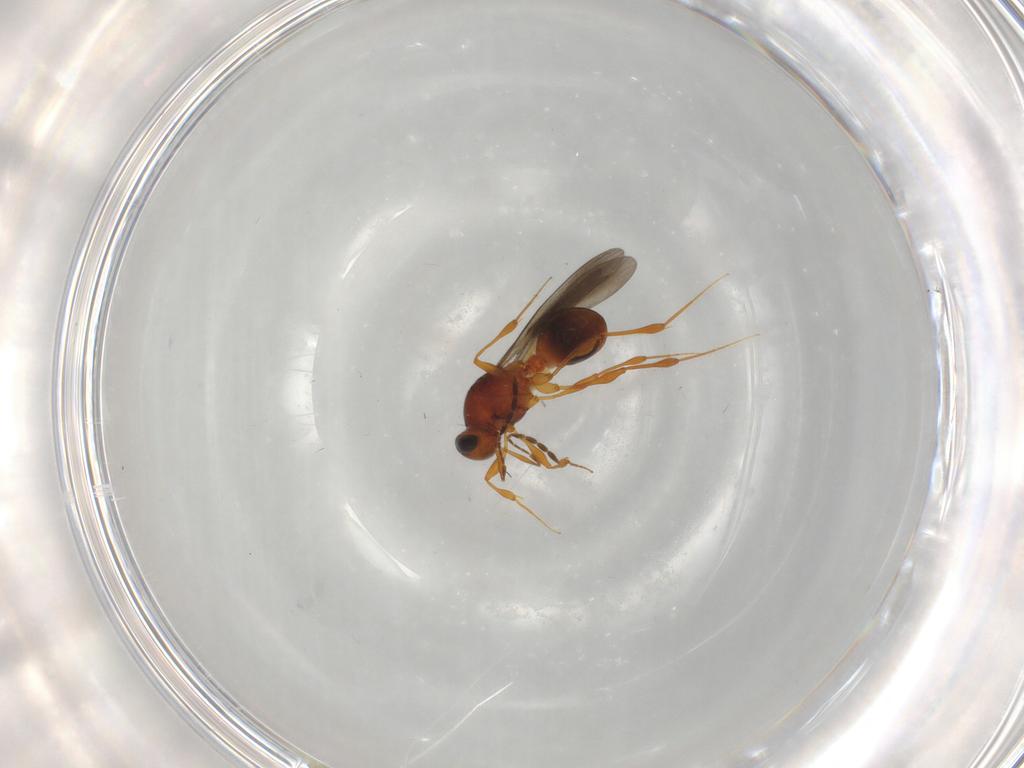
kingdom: Animalia
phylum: Arthropoda
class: Insecta
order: Hymenoptera
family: Platygastridae
